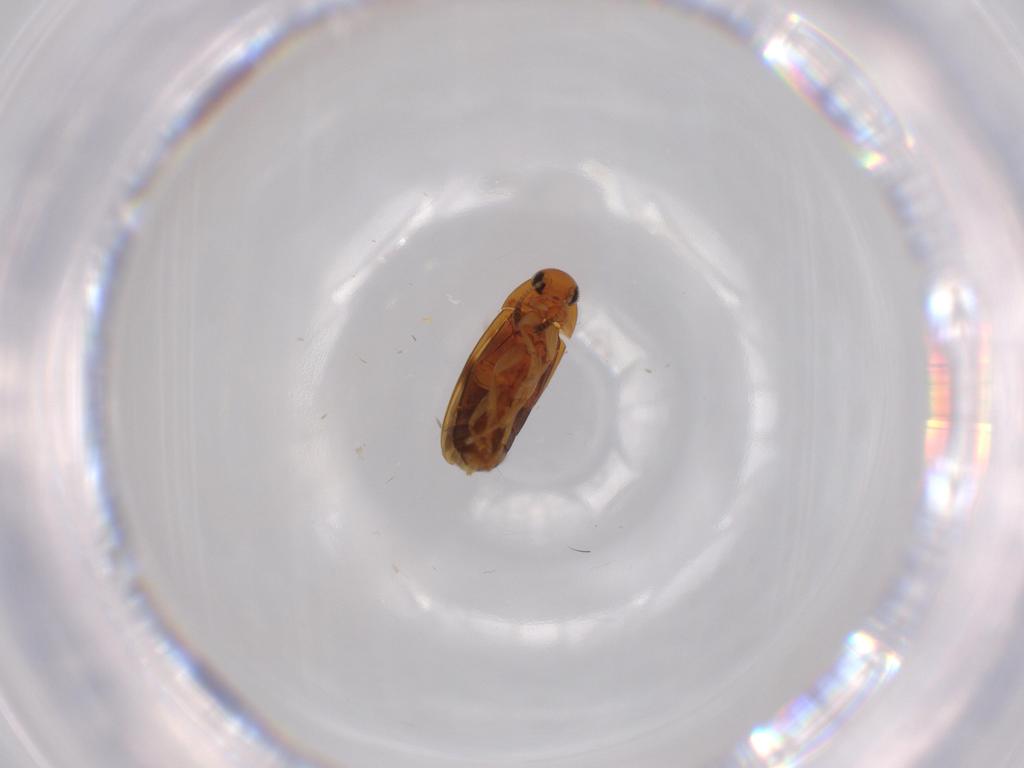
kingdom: Animalia
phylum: Arthropoda
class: Insecta
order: Coleoptera
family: Scraptiidae
